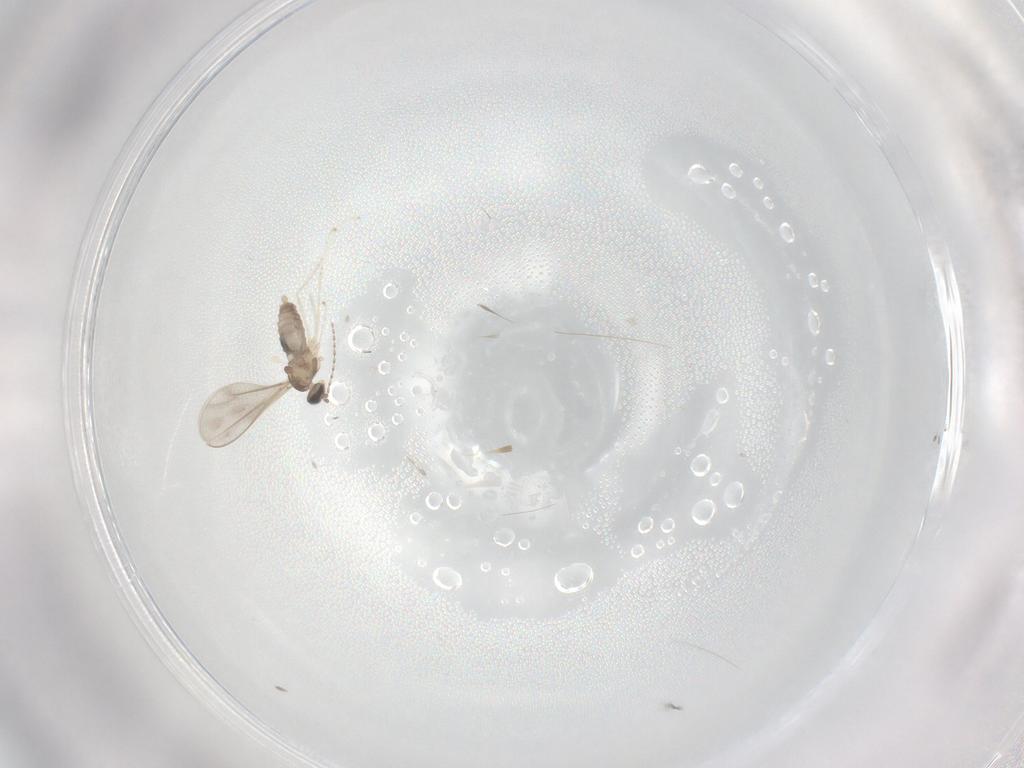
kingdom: Animalia
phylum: Arthropoda
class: Insecta
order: Diptera
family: Cecidomyiidae
